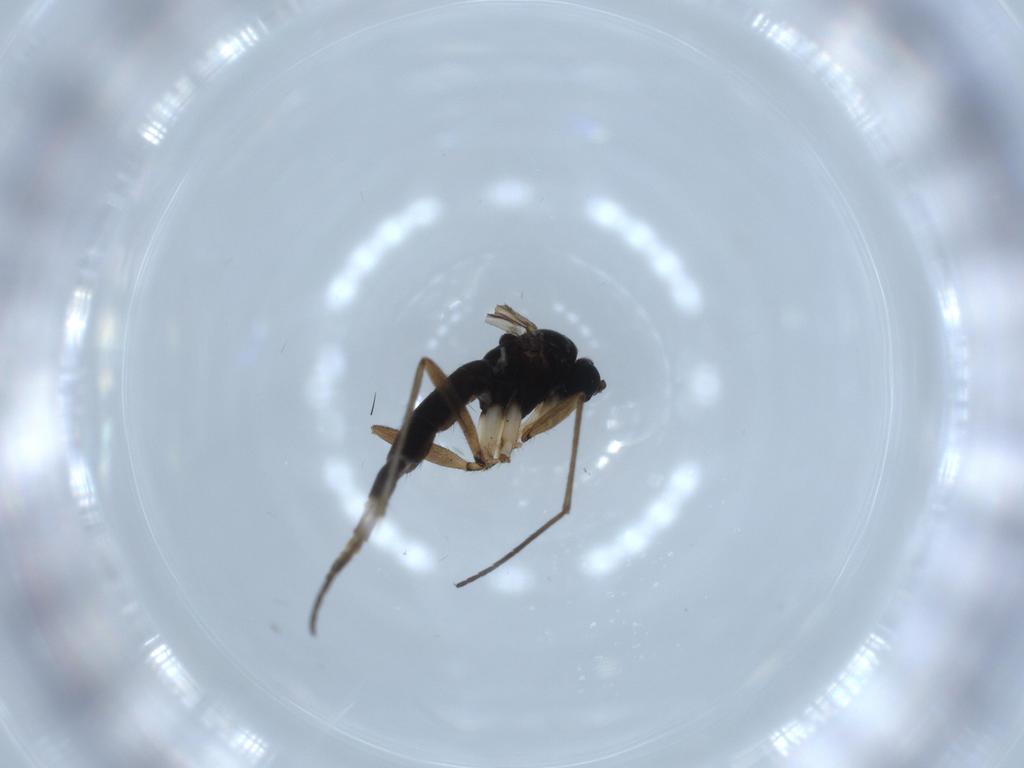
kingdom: Animalia
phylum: Arthropoda
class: Insecta
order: Diptera
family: Sciaridae
